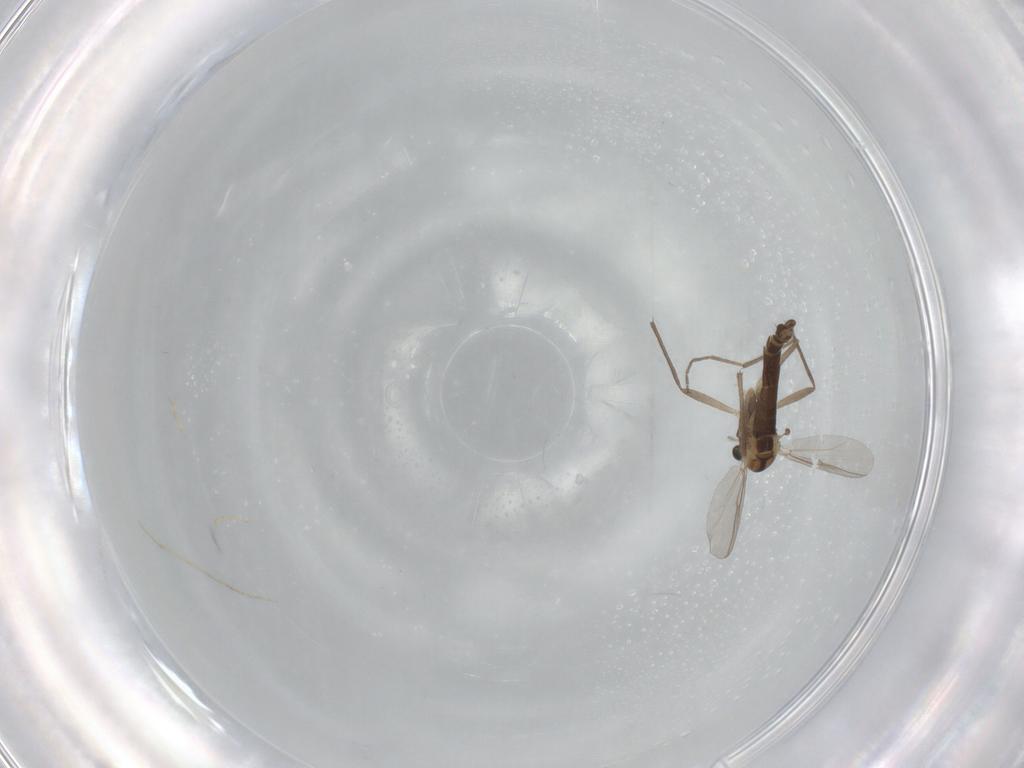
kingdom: Animalia
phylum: Arthropoda
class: Insecta
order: Diptera
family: Chironomidae
